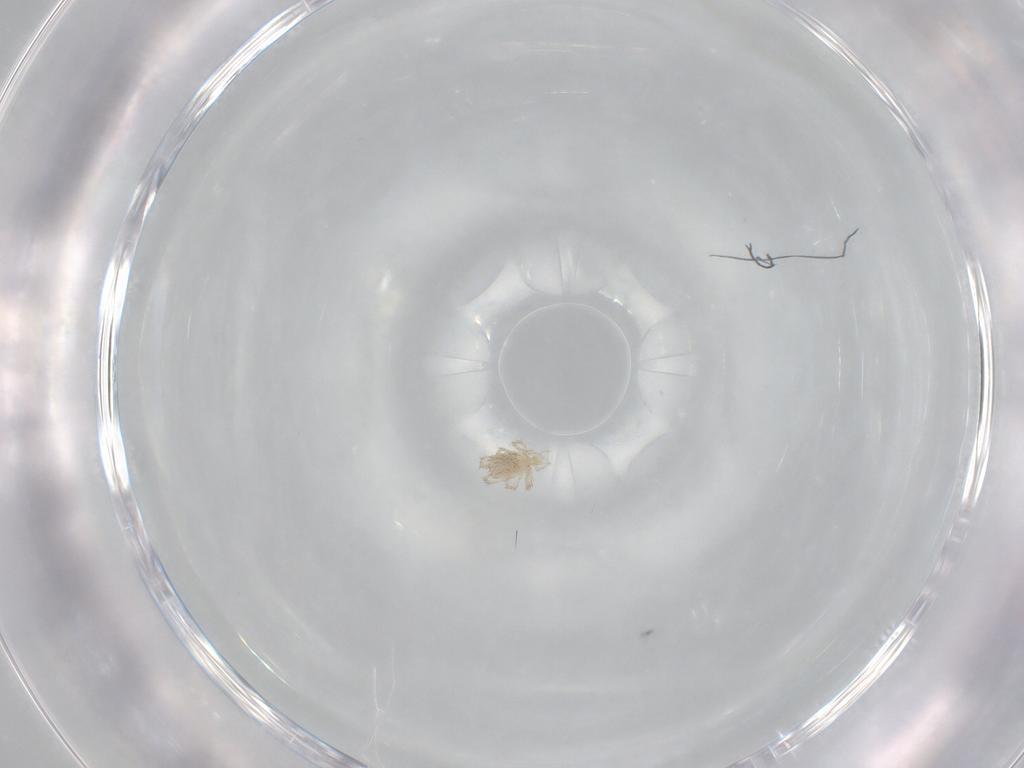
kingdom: Animalia
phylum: Arthropoda
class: Arachnida
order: Trombidiformes
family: Erythraeidae
